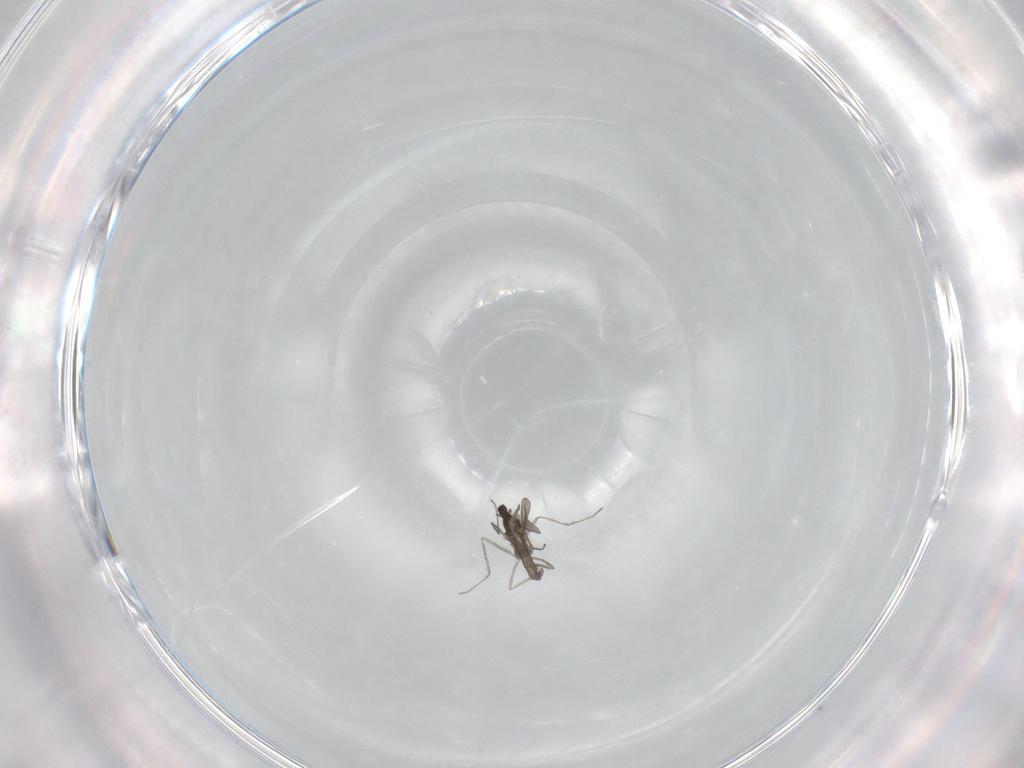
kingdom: Animalia
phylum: Arthropoda
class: Insecta
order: Diptera
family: Cecidomyiidae
